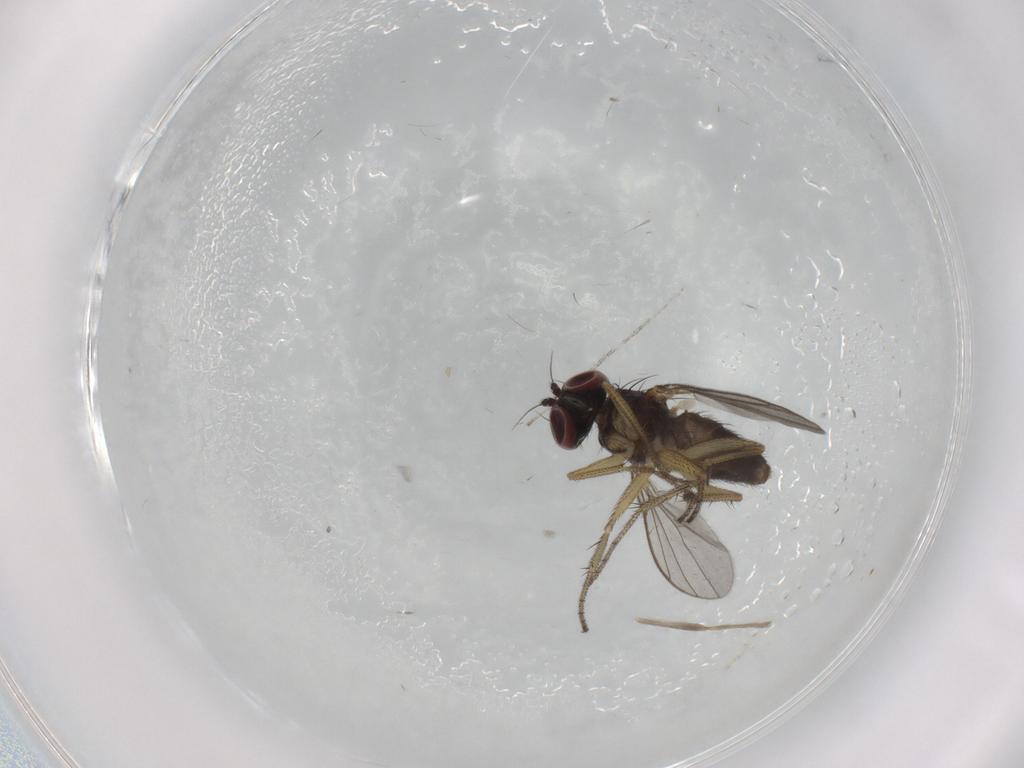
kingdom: Animalia
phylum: Arthropoda
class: Insecta
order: Diptera
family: Chironomidae
